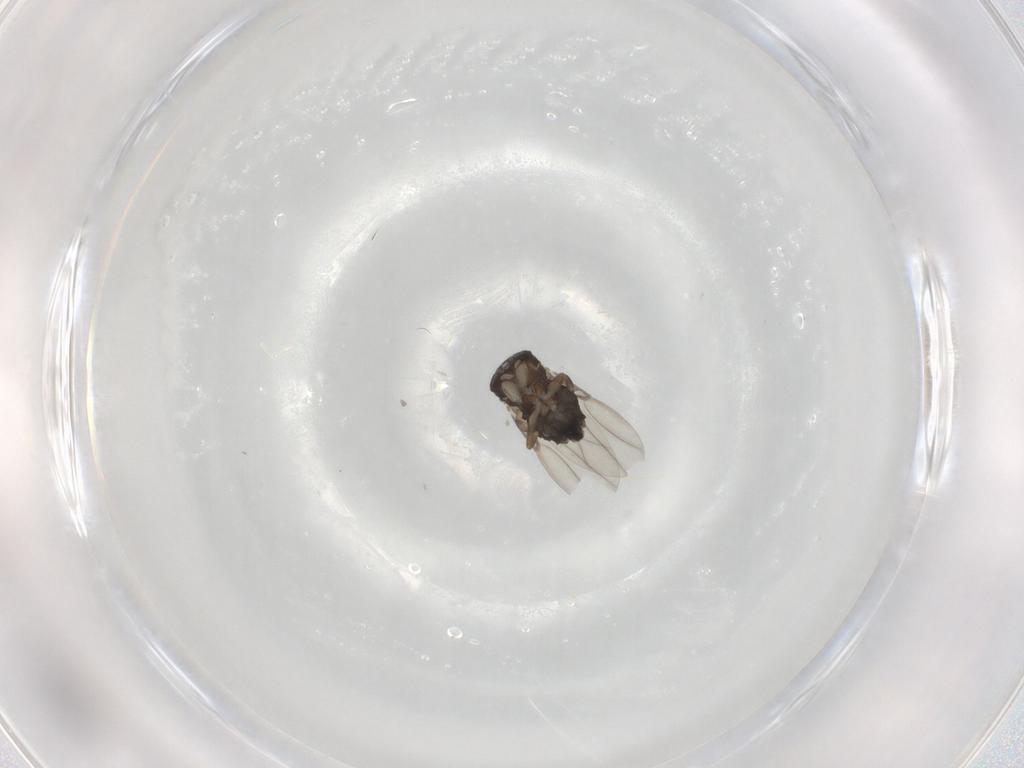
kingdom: Animalia
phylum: Arthropoda
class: Insecta
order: Diptera
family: Phoridae
